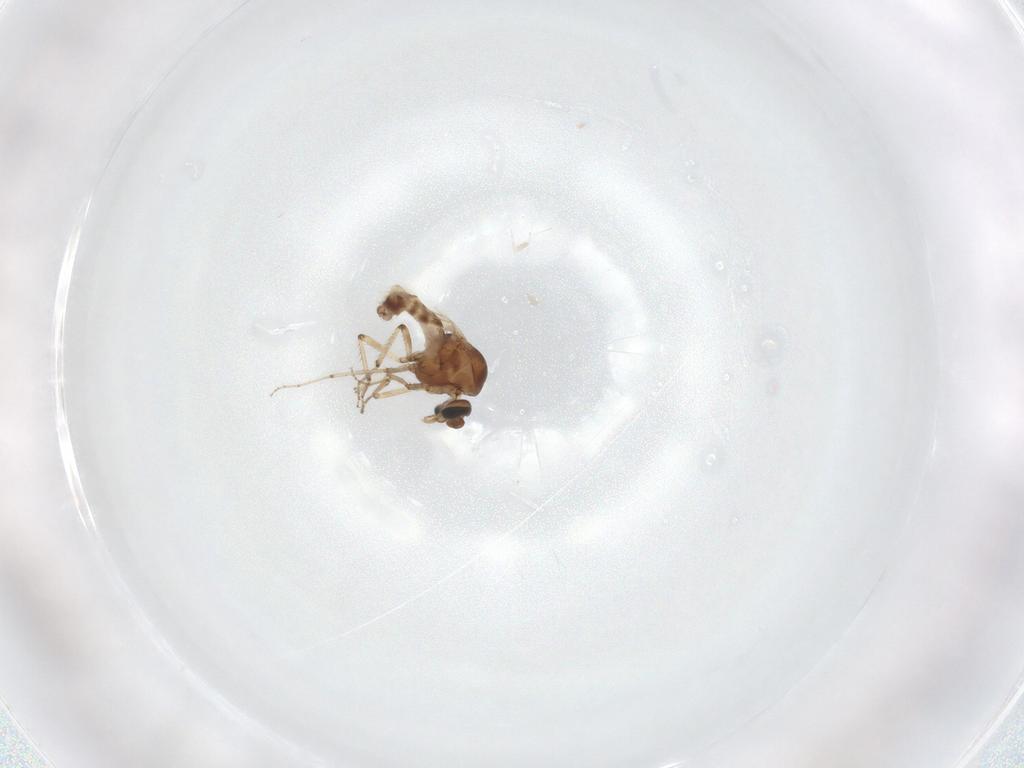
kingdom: Animalia
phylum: Arthropoda
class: Insecta
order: Diptera
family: Ceratopogonidae
